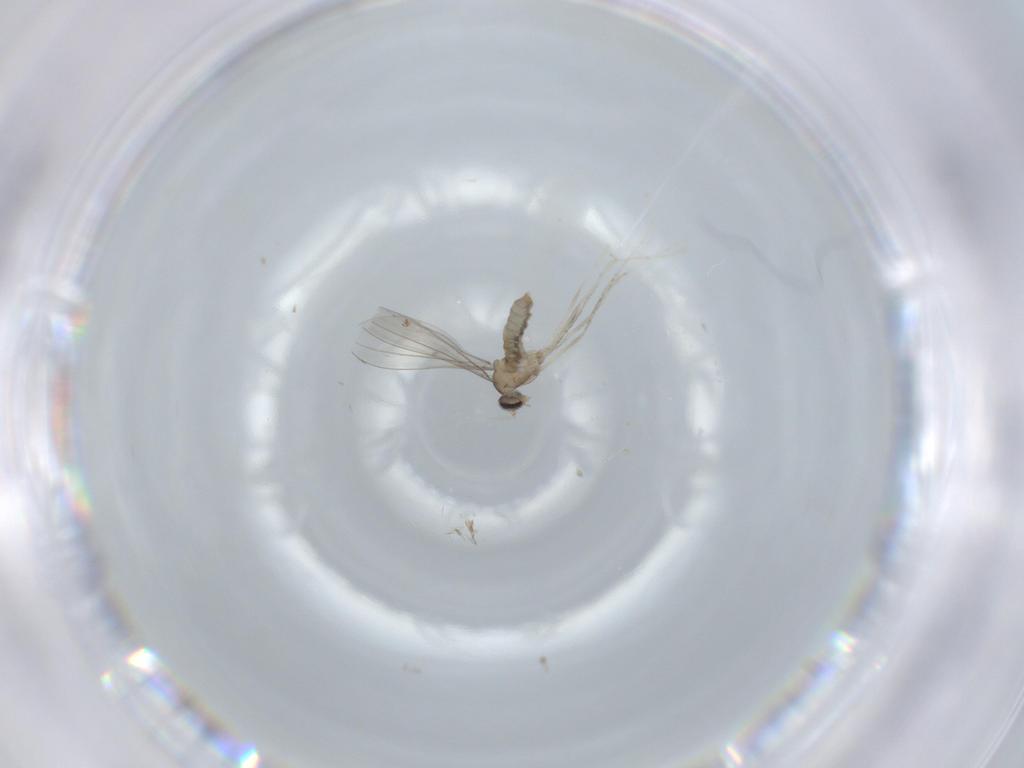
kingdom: Animalia
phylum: Arthropoda
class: Insecta
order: Diptera
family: Cecidomyiidae
